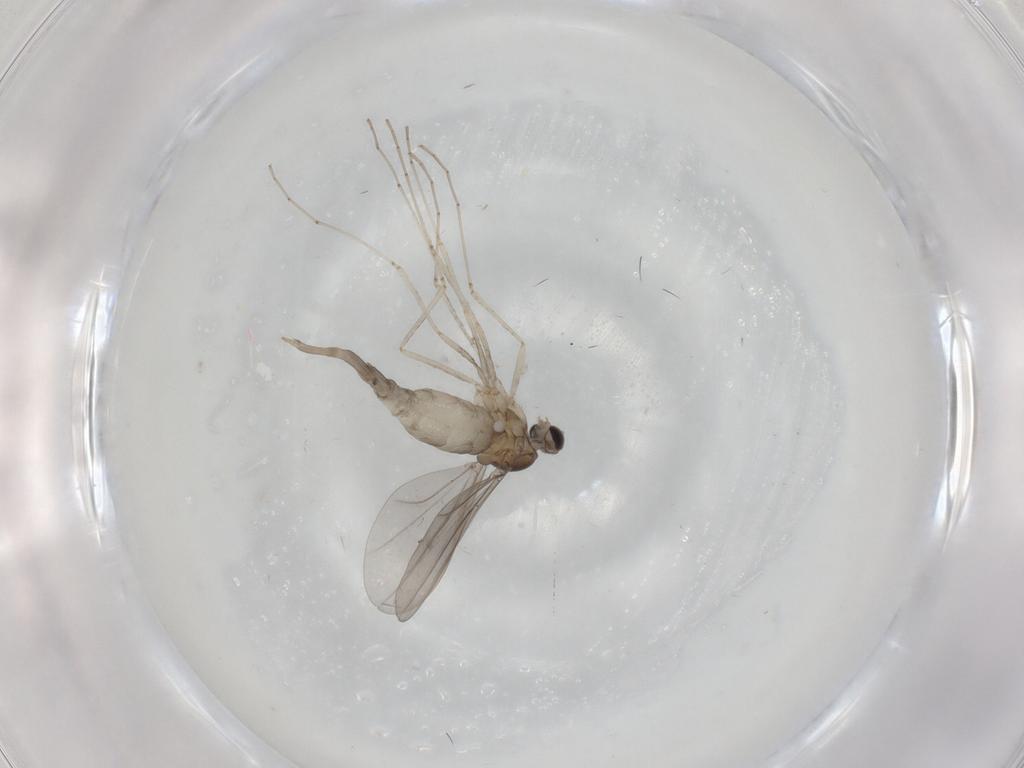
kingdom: Animalia
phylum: Arthropoda
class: Insecta
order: Diptera
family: Cecidomyiidae
